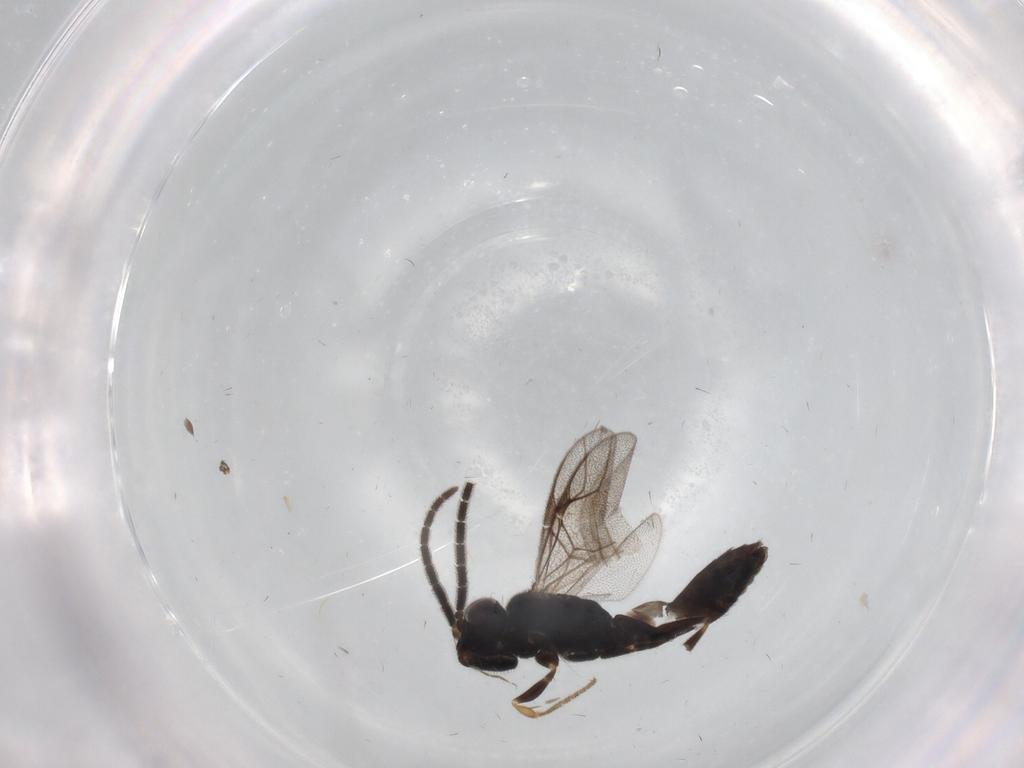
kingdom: Animalia
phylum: Arthropoda
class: Insecta
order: Hymenoptera
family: Dryinidae
